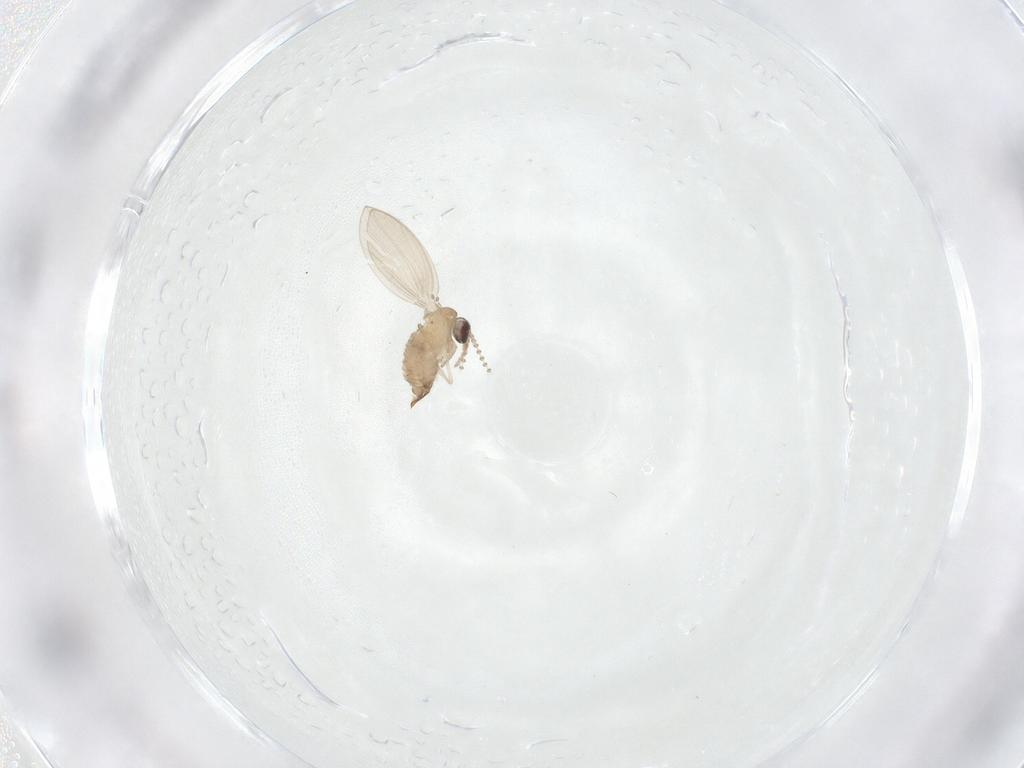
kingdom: Animalia
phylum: Arthropoda
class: Insecta
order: Diptera
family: Psychodidae
